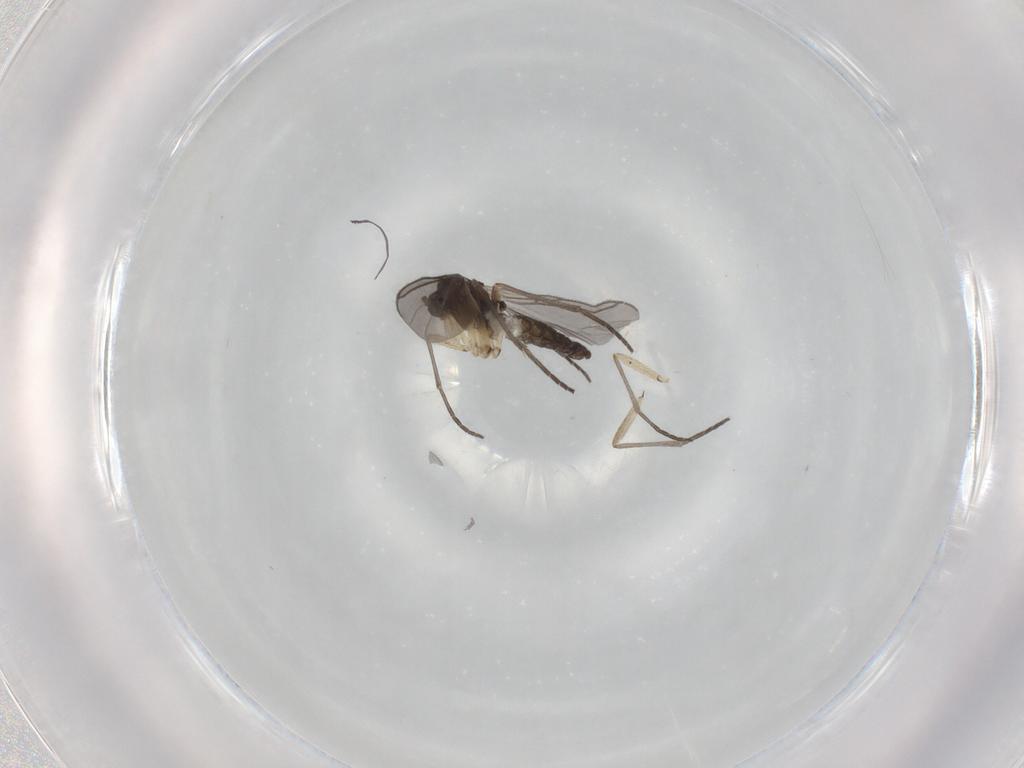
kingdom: Animalia
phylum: Arthropoda
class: Insecta
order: Diptera
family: Sciaridae
